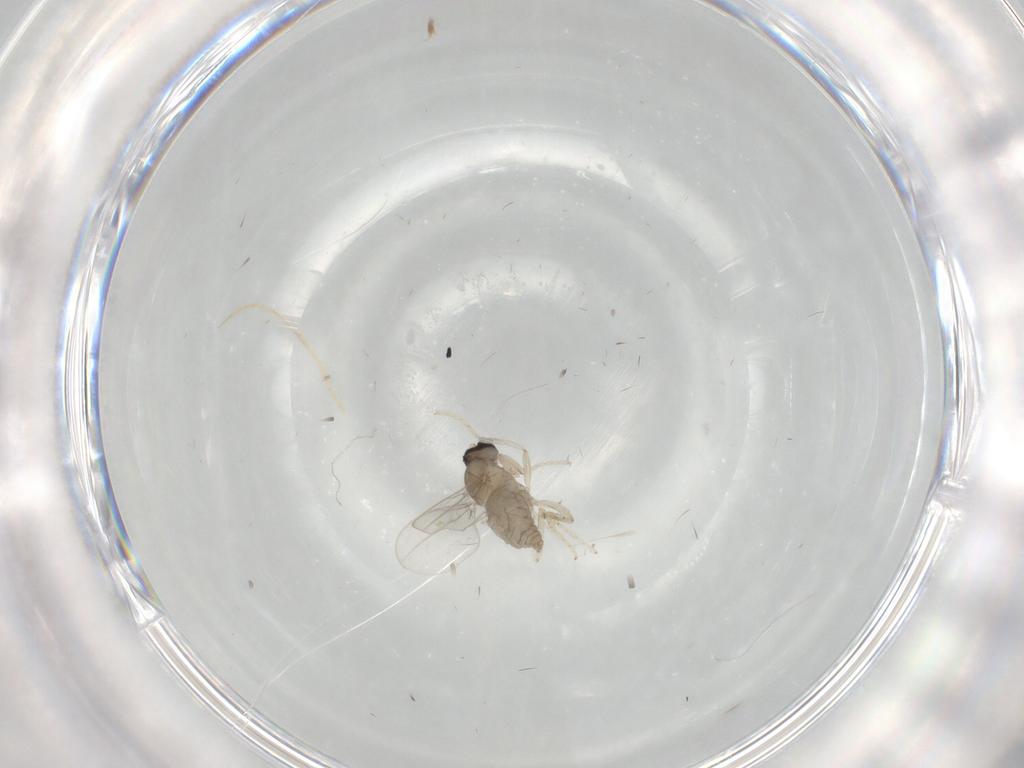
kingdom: Animalia
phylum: Arthropoda
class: Insecta
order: Diptera
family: Cecidomyiidae
